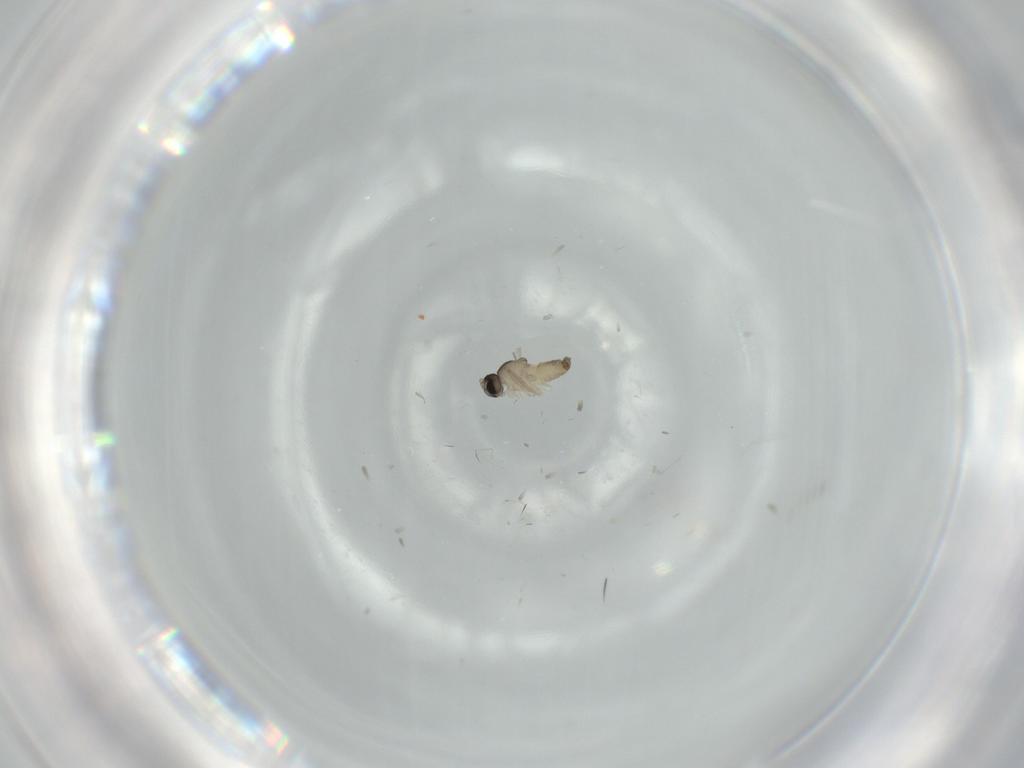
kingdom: Animalia
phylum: Arthropoda
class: Insecta
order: Diptera
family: Cecidomyiidae
